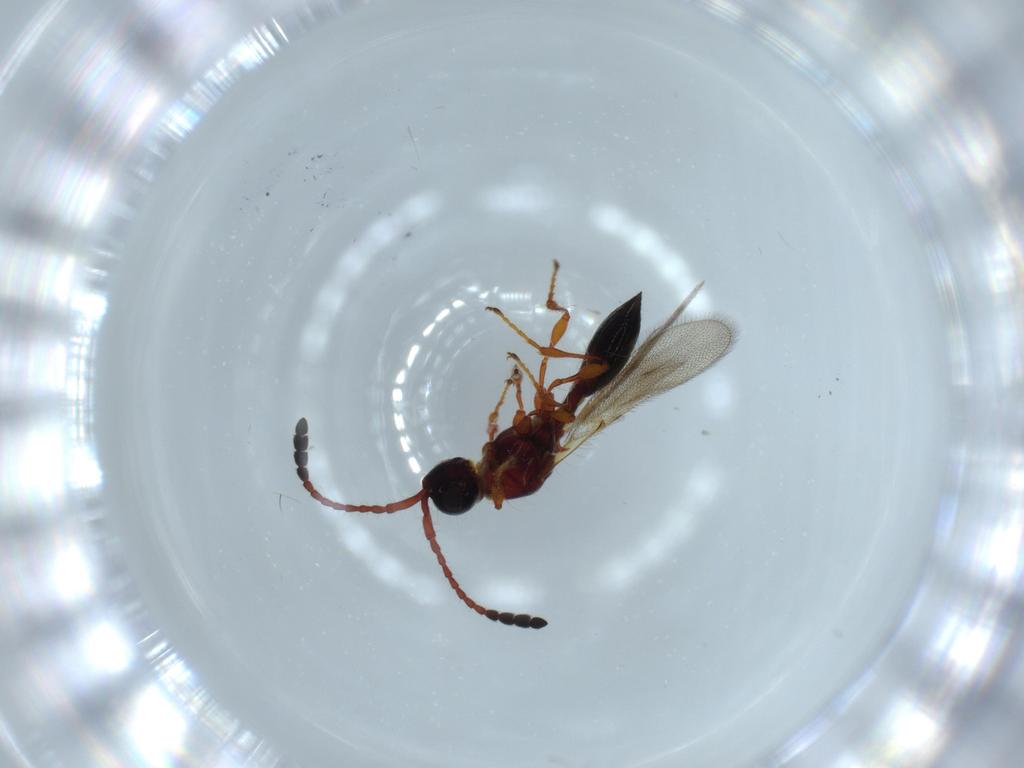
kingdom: Animalia
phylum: Arthropoda
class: Insecta
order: Hymenoptera
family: Diapriidae
